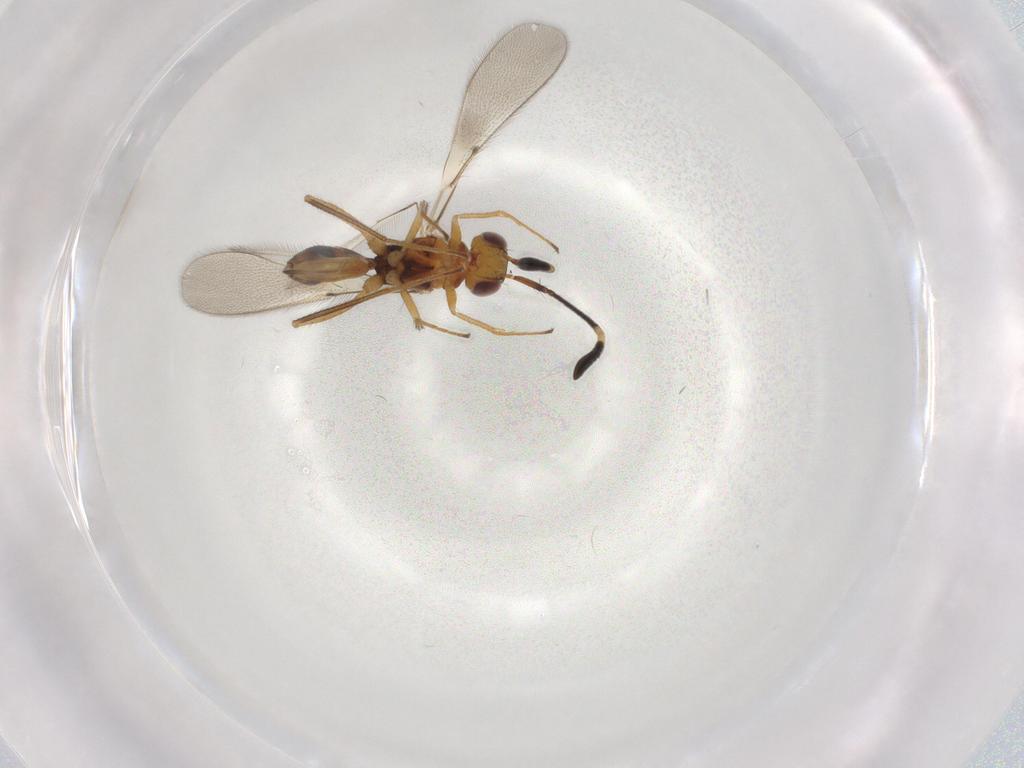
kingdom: Animalia
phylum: Arthropoda
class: Insecta
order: Hymenoptera
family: Mymaridae
